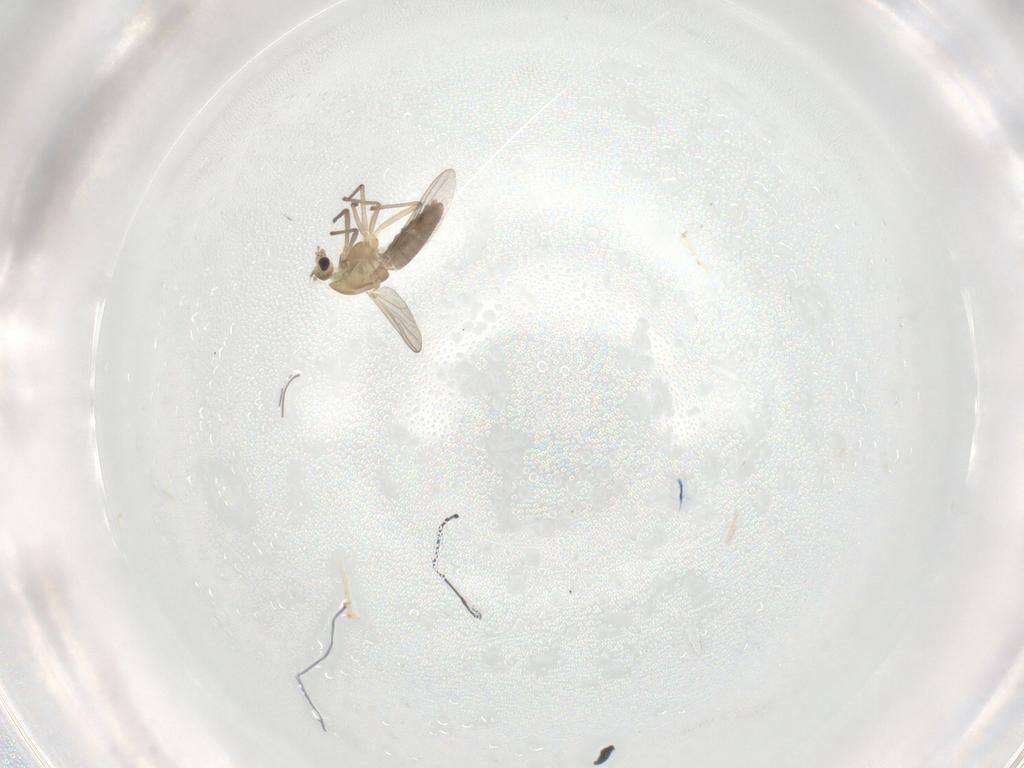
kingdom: Animalia
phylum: Arthropoda
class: Insecta
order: Diptera
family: Chironomidae
